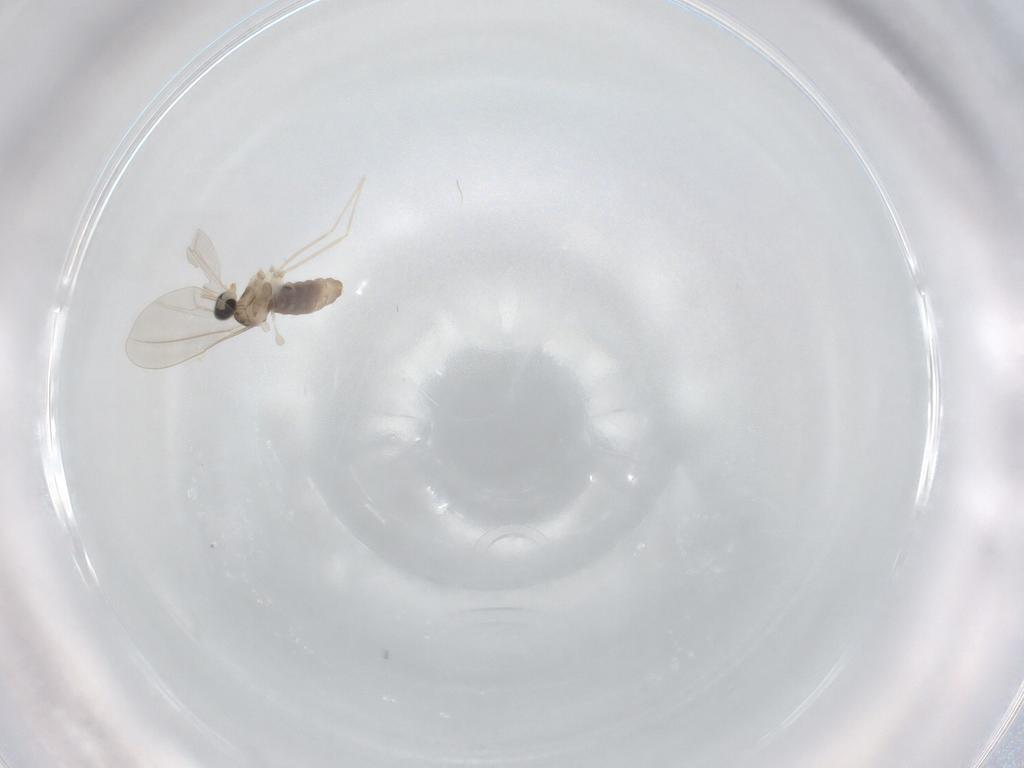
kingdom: Animalia
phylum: Arthropoda
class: Insecta
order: Diptera
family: Cecidomyiidae
